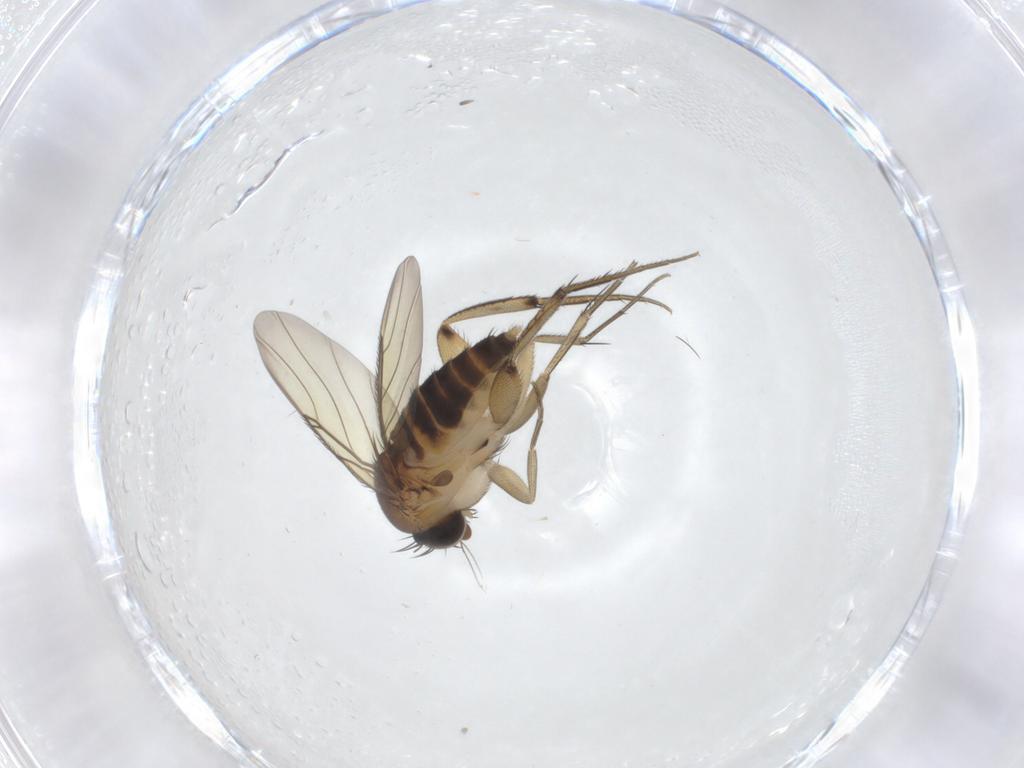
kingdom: Animalia
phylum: Arthropoda
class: Insecta
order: Diptera
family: Phoridae
